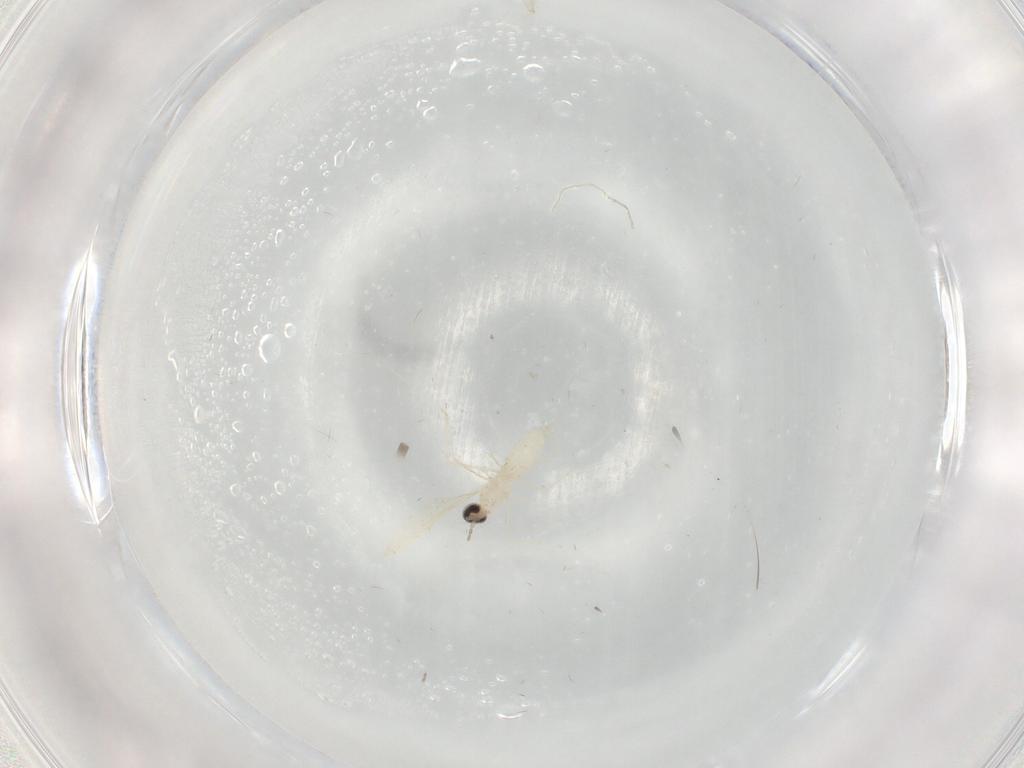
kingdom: Animalia
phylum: Arthropoda
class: Insecta
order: Diptera
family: Cecidomyiidae
